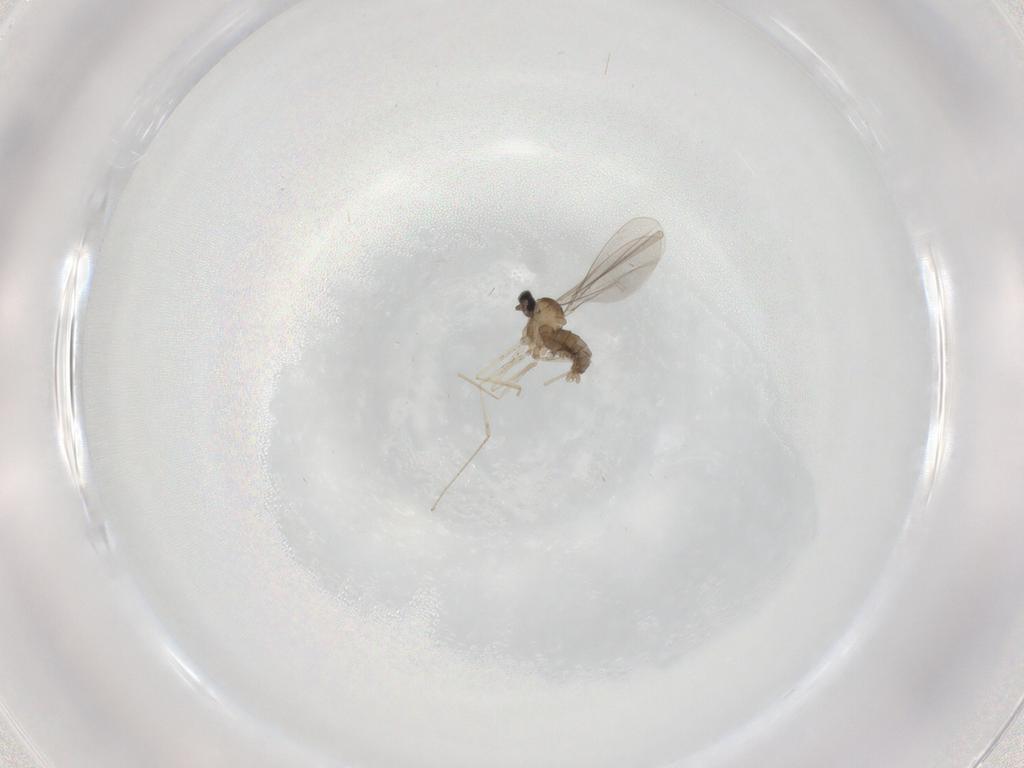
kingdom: Animalia
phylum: Arthropoda
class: Insecta
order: Diptera
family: Cecidomyiidae
